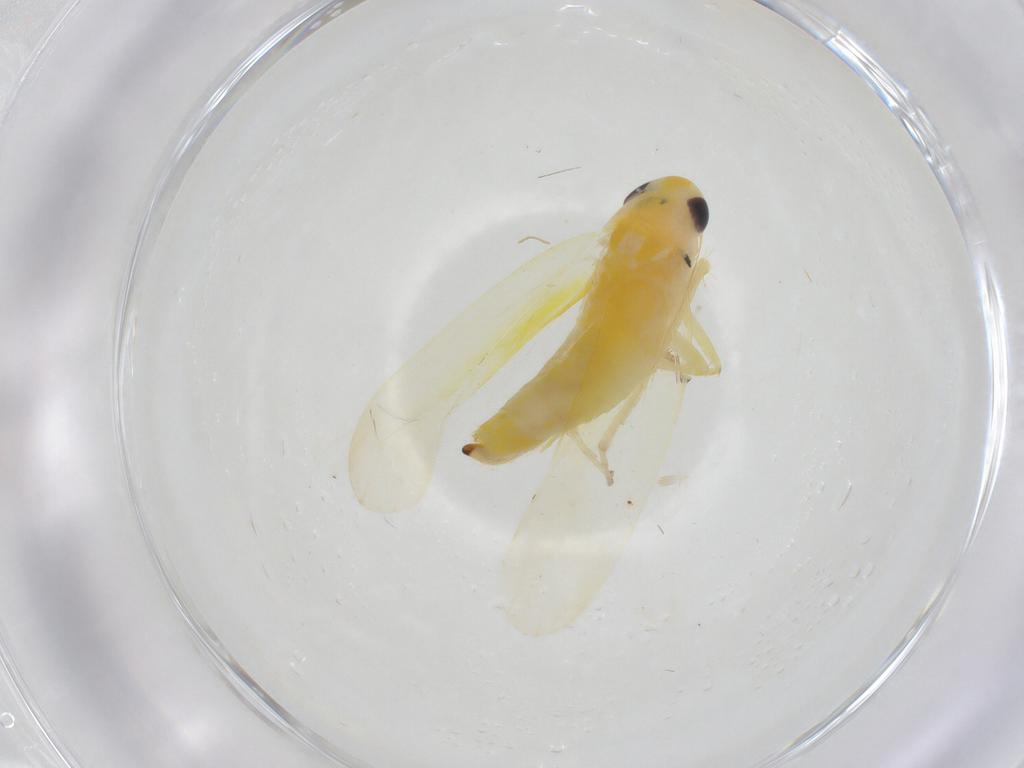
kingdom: Animalia
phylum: Arthropoda
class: Insecta
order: Hemiptera
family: Cicadellidae
